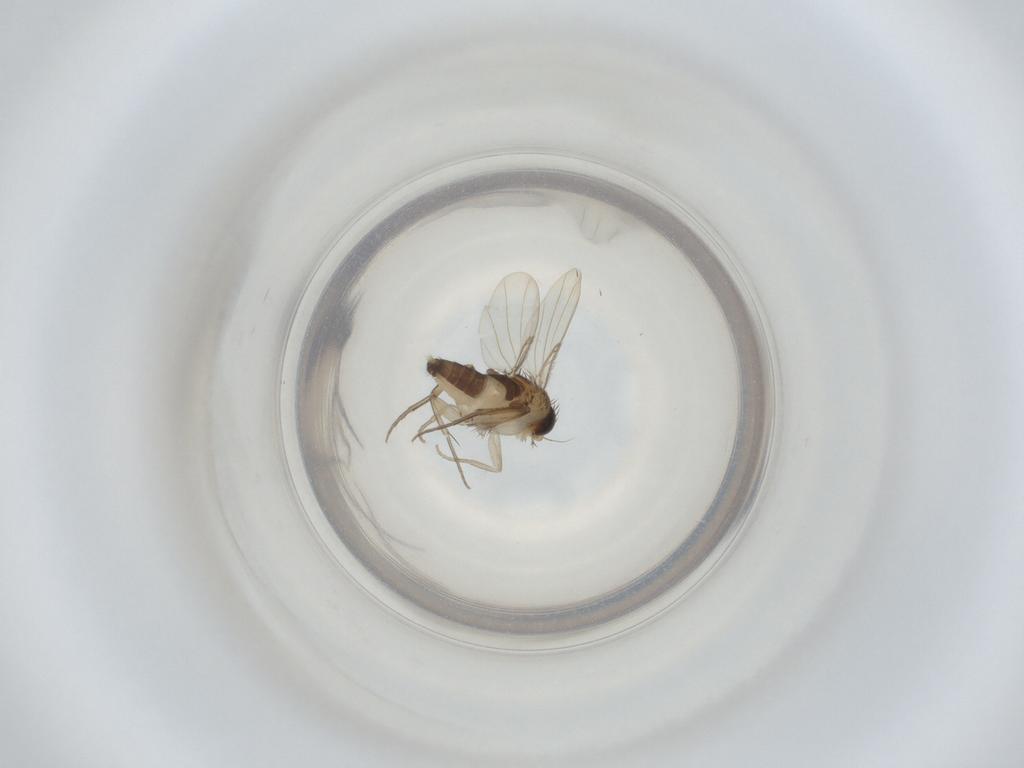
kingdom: Animalia
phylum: Arthropoda
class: Insecta
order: Diptera
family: Phoridae
